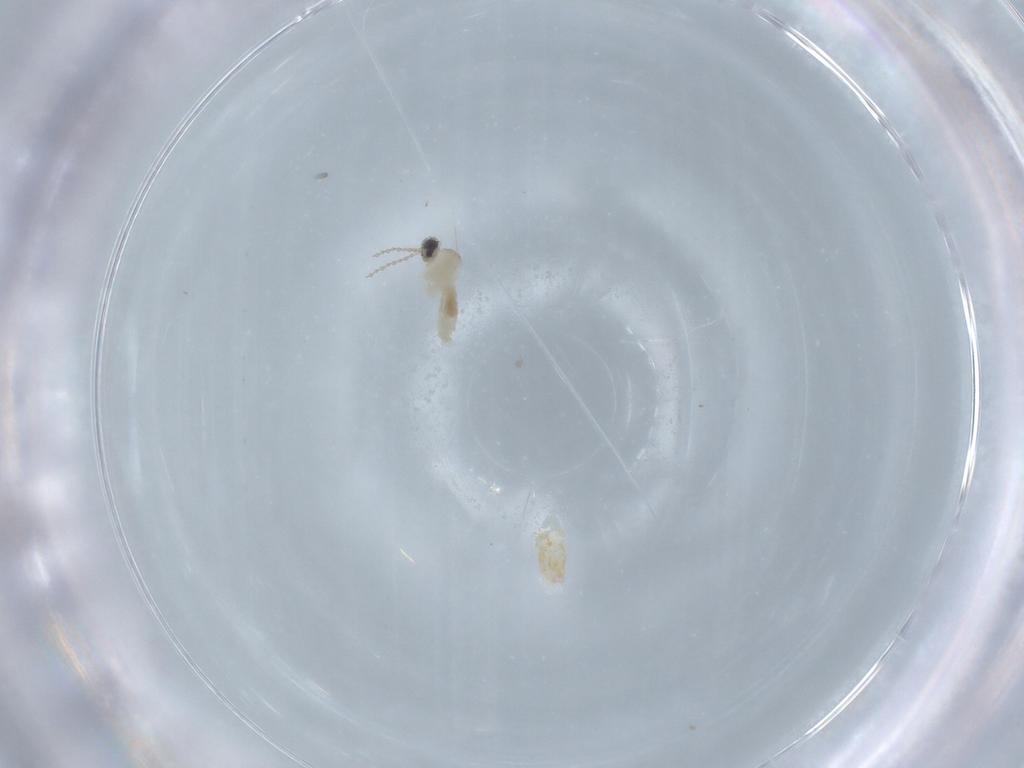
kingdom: Animalia
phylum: Arthropoda
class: Insecta
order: Diptera
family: Cecidomyiidae
